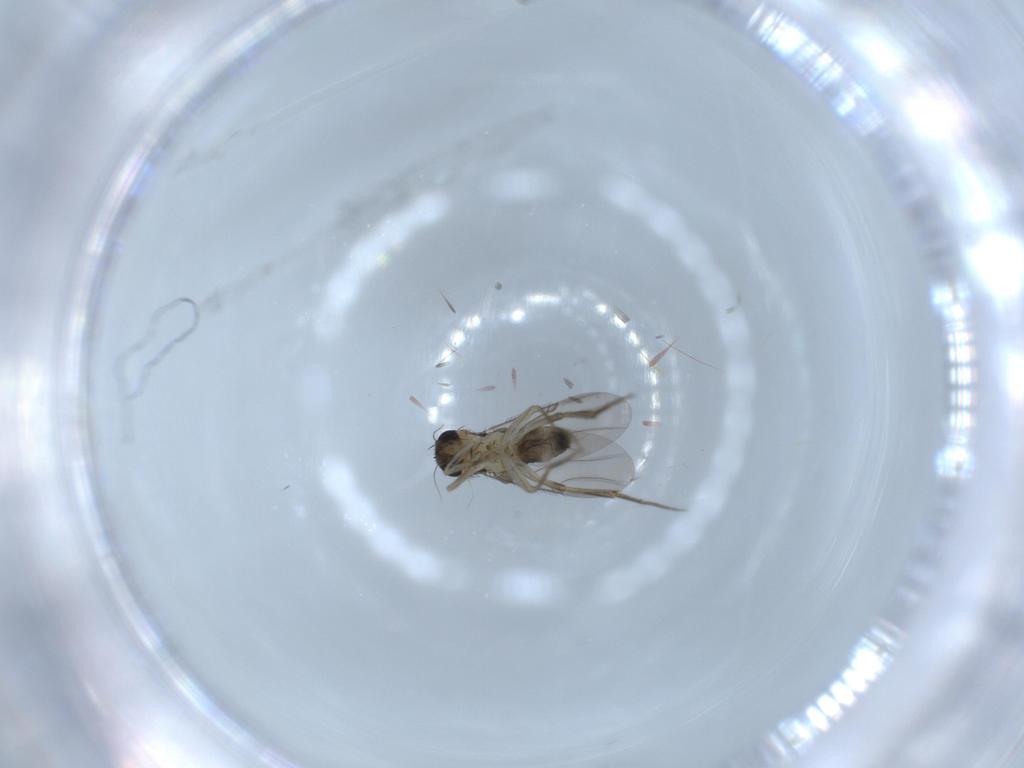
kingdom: Animalia
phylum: Arthropoda
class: Insecta
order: Diptera
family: Phoridae
